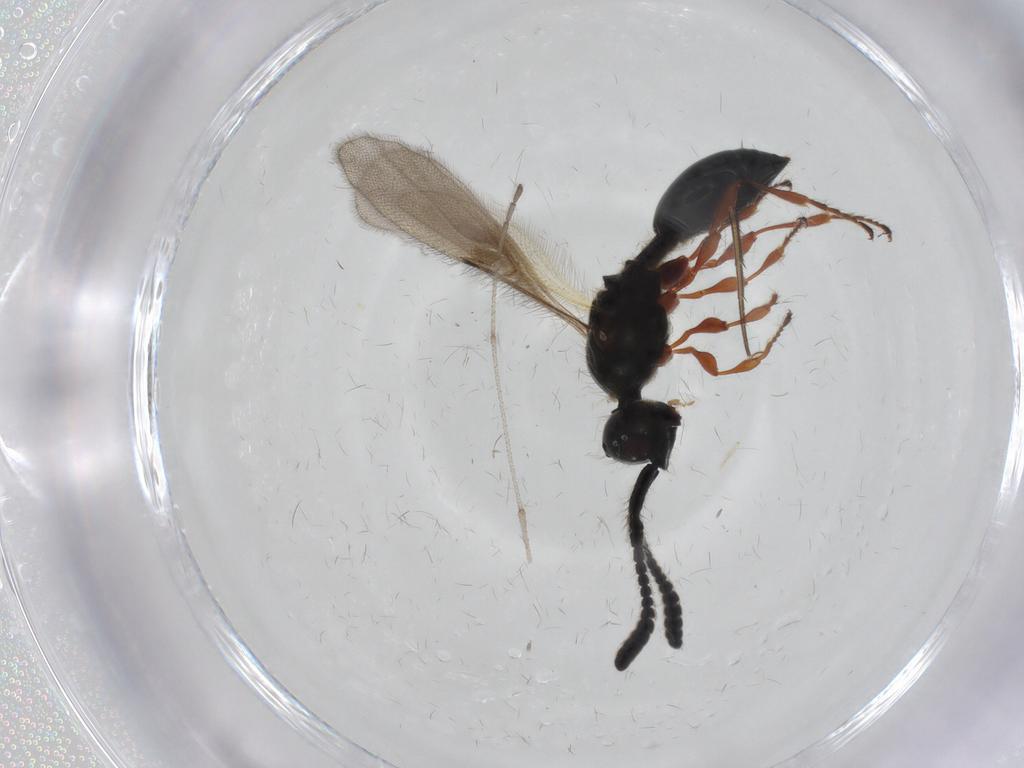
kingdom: Animalia
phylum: Arthropoda
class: Insecta
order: Hymenoptera
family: Diapriidae
